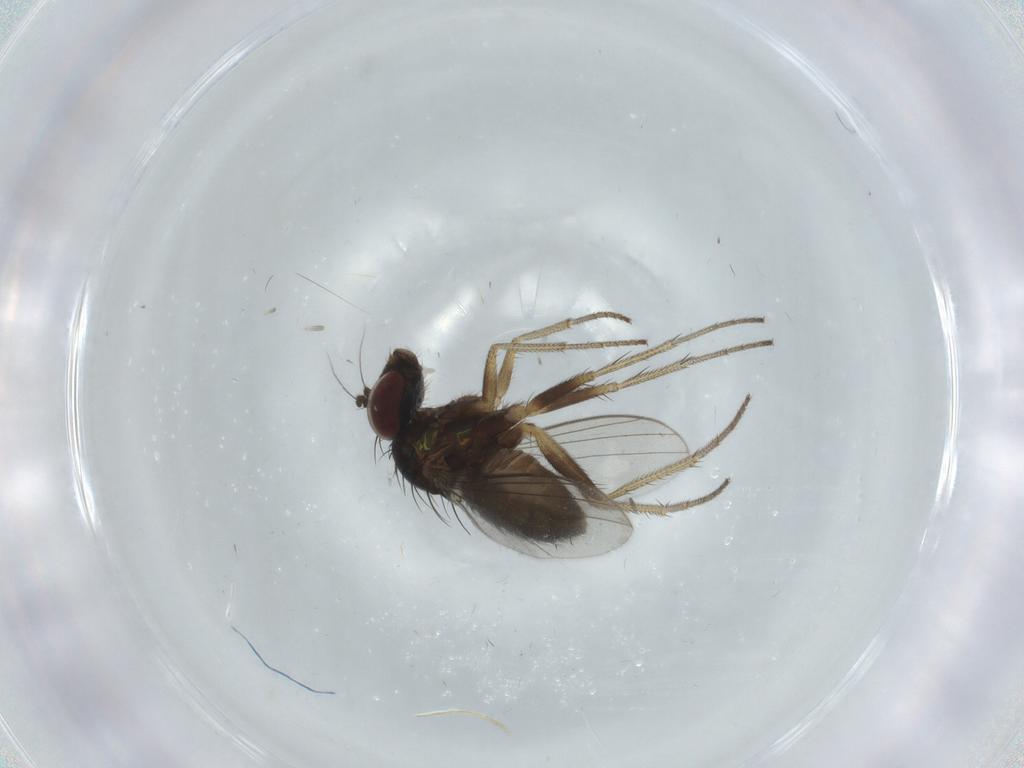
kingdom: Animalia
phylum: Arthropoda
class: Insecta
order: Diptera
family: Dolichopodidae
